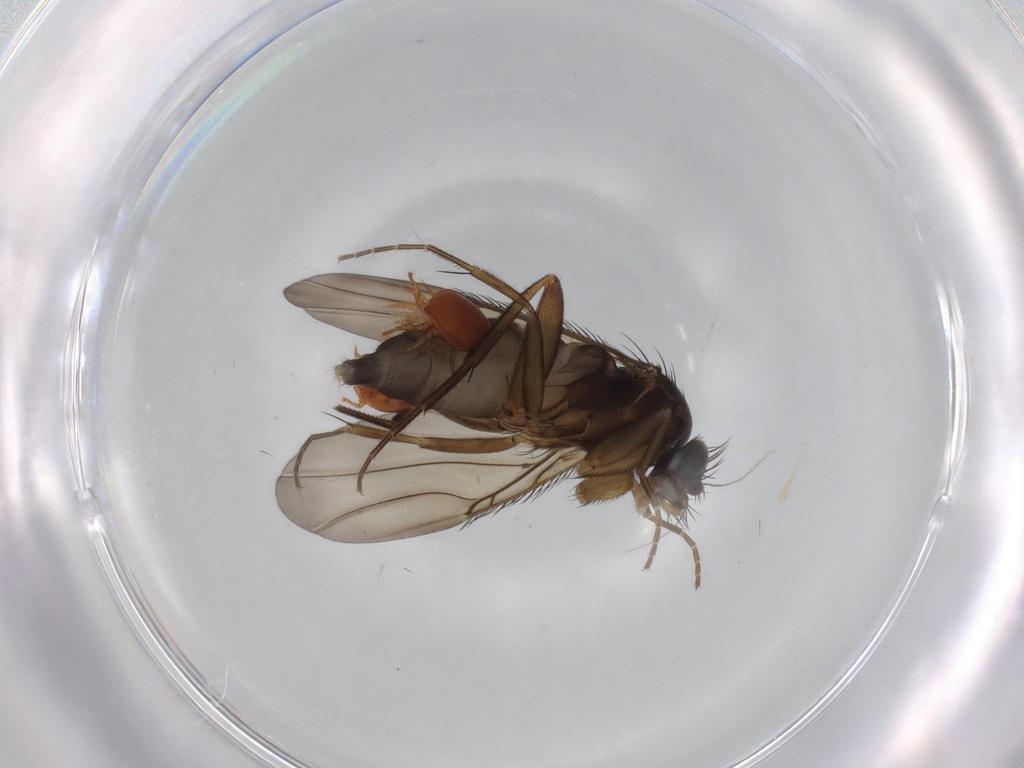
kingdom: Animalia
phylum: Arthropoda
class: Insecta
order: Diptera
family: Phoridae
